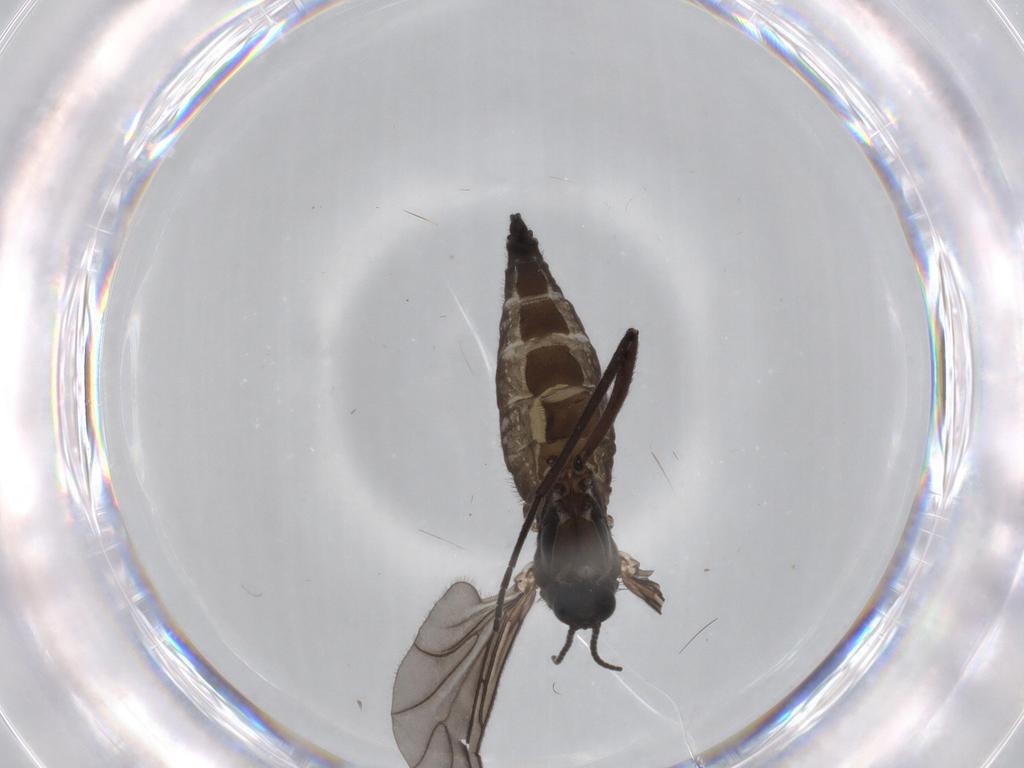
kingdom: Animalia
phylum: Arthropoda
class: Insecta
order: Diptera
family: Sciaridae
